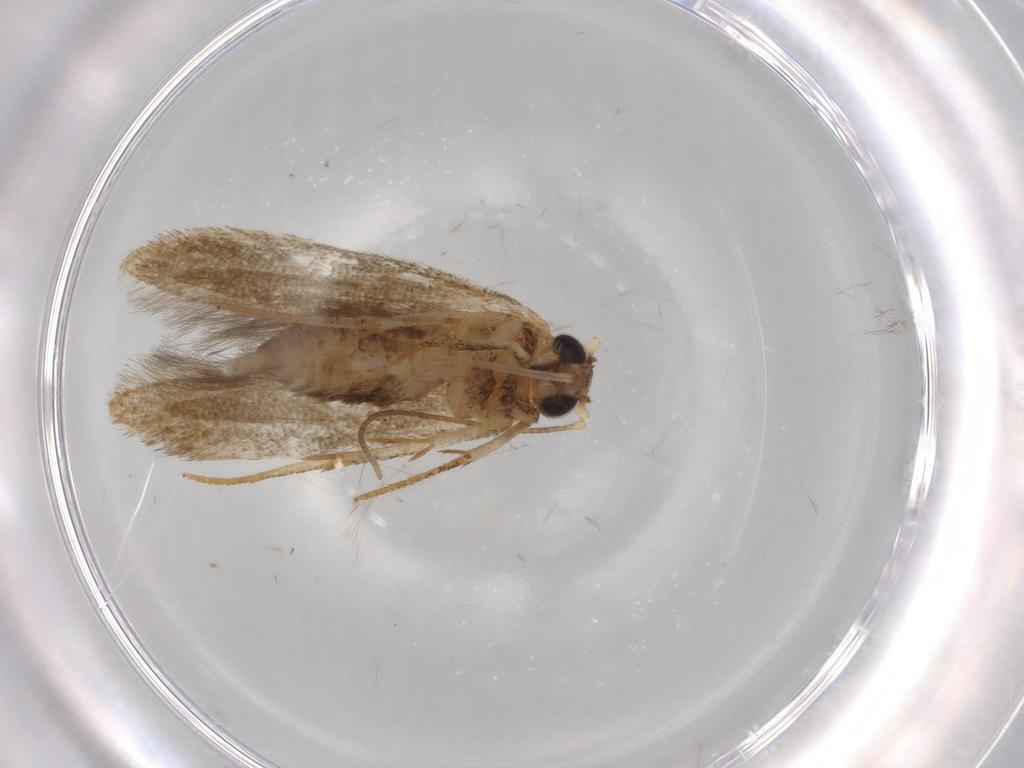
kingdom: Animalia
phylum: Arthropoda
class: Insecta
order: Lepidoptera
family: Blastobasidae
